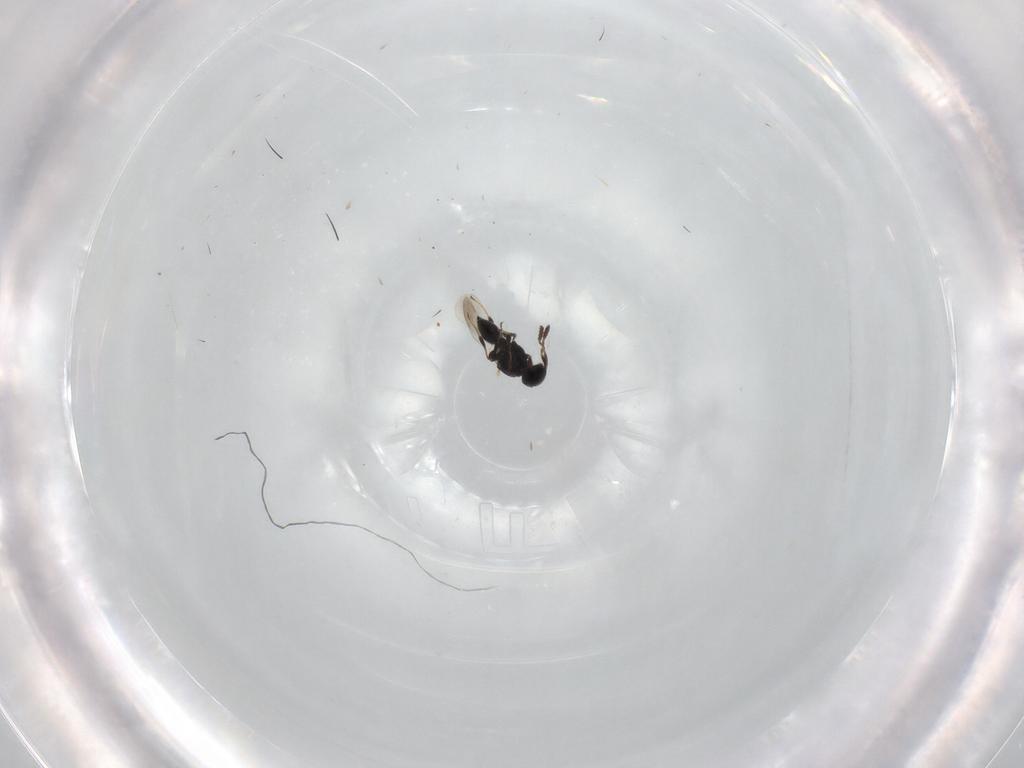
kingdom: Animalia
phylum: Arthropoda
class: Insecta
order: Hymenoptera
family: Platygastridae
